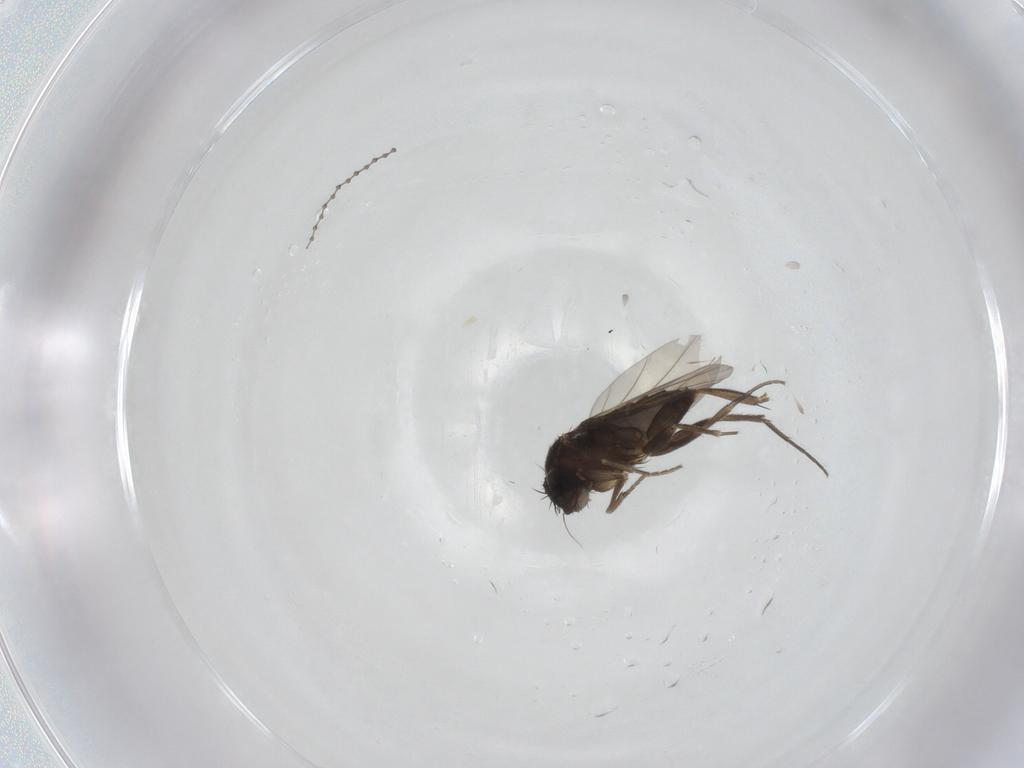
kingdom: Animalia
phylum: Arthropoda
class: Insecta
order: Diptera
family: Phoridae
